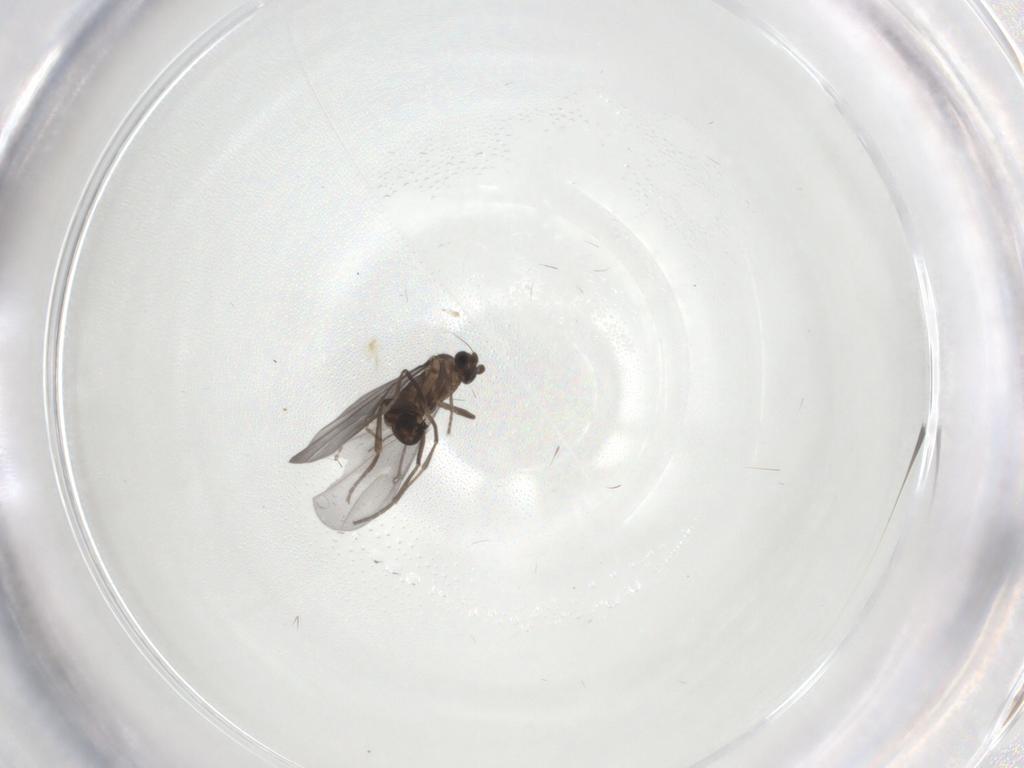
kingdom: Animalia
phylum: Arthropoda
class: Insecta
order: Diptera
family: Phoridae
